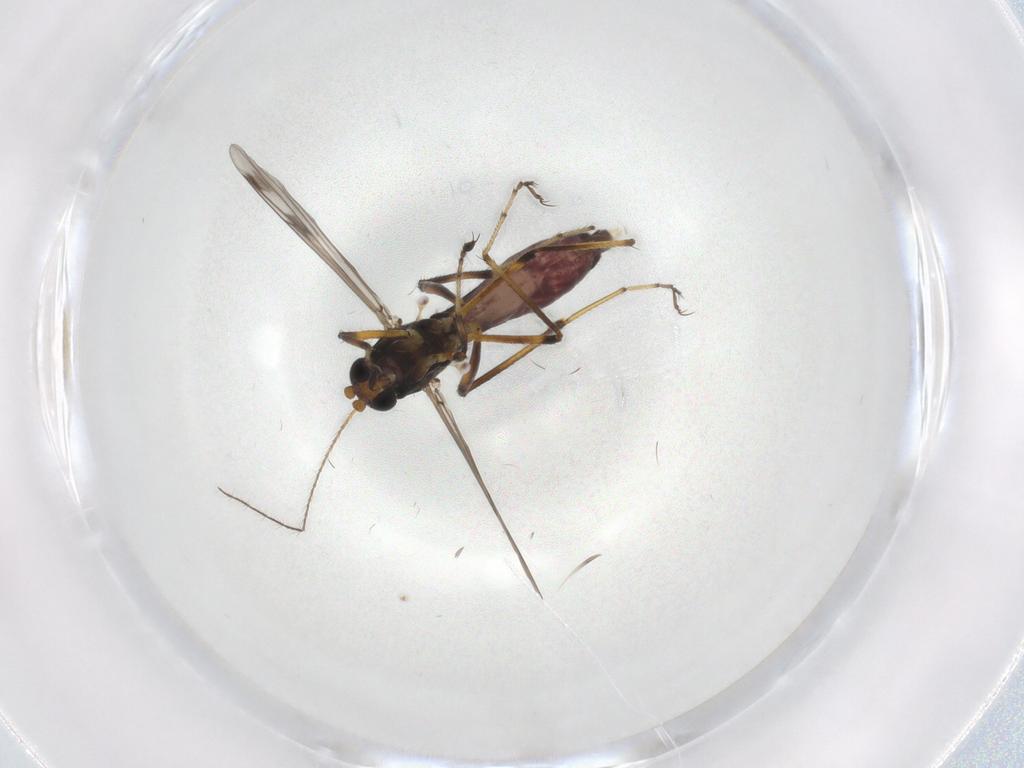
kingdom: Animalia
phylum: Arthropoda
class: Insecta
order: Diptera
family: Ceratopogonidae
